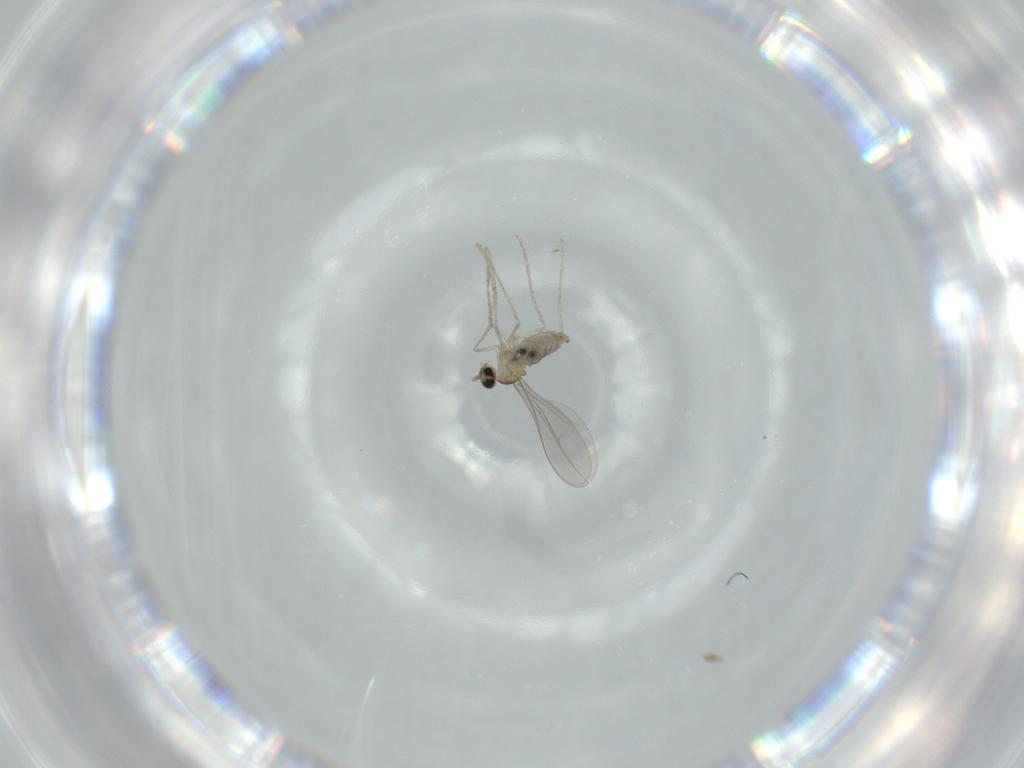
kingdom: Animalia
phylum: Arthropoda
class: Insecta
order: Diptera
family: Cecidomyiidae
